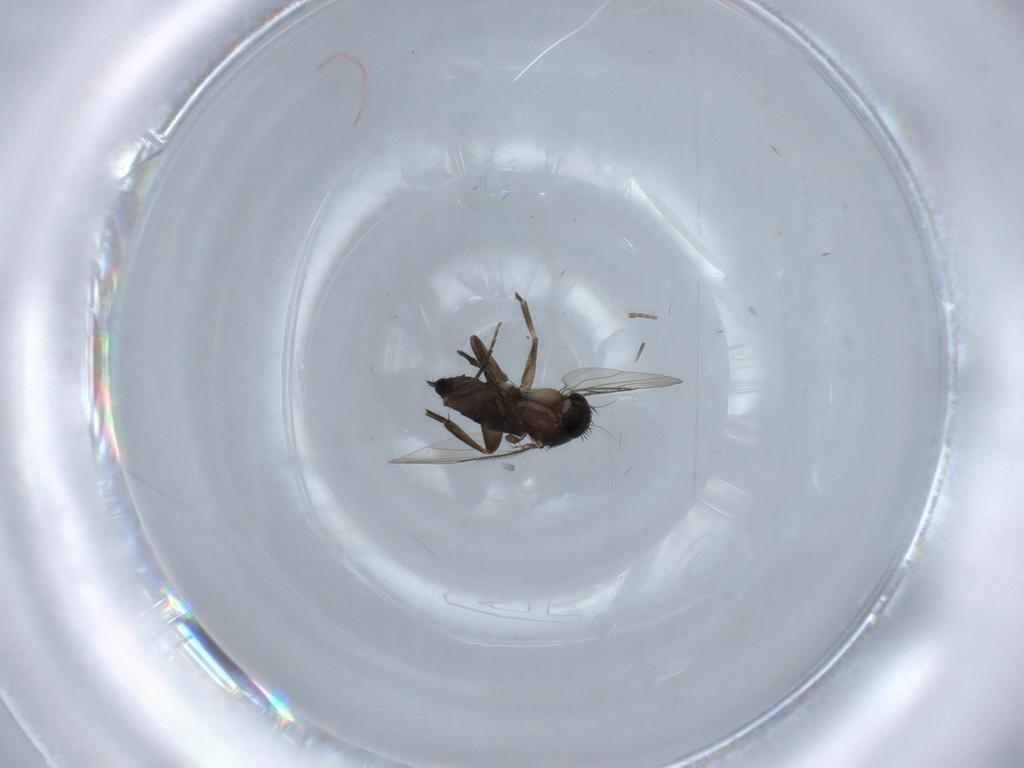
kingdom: Animalia
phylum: Arthropoda
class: Insecta
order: Diptera
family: Phoridae
